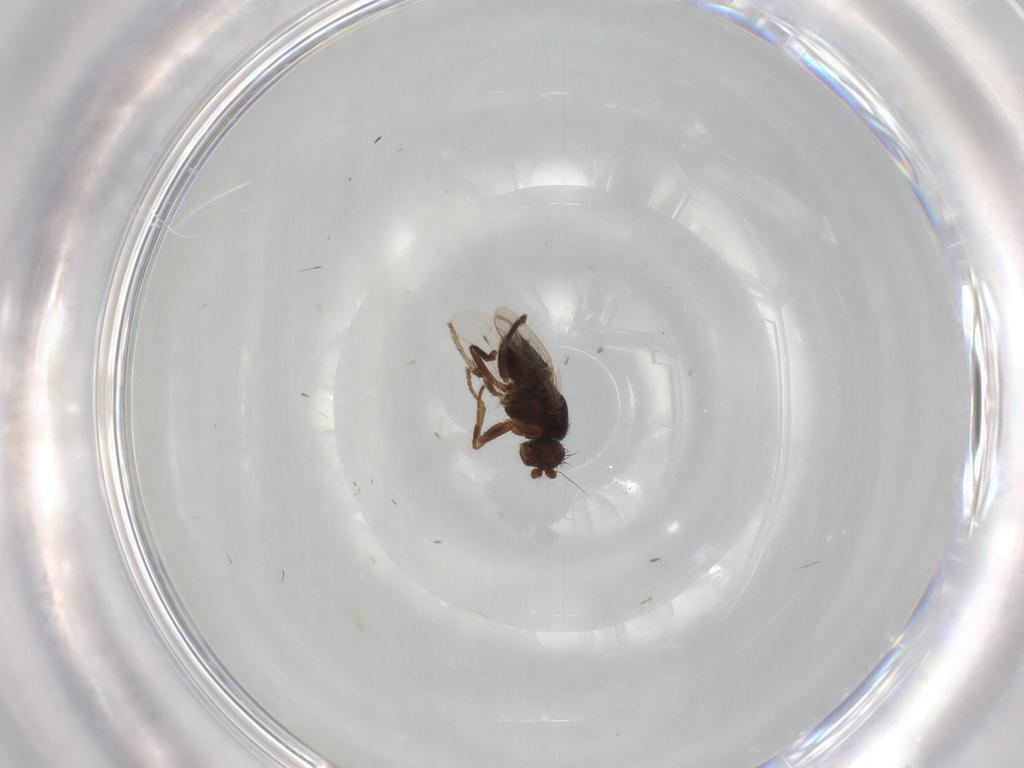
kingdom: Animalia
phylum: Arthropoda
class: Insecta
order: Diptera
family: Sphaeroceridae
